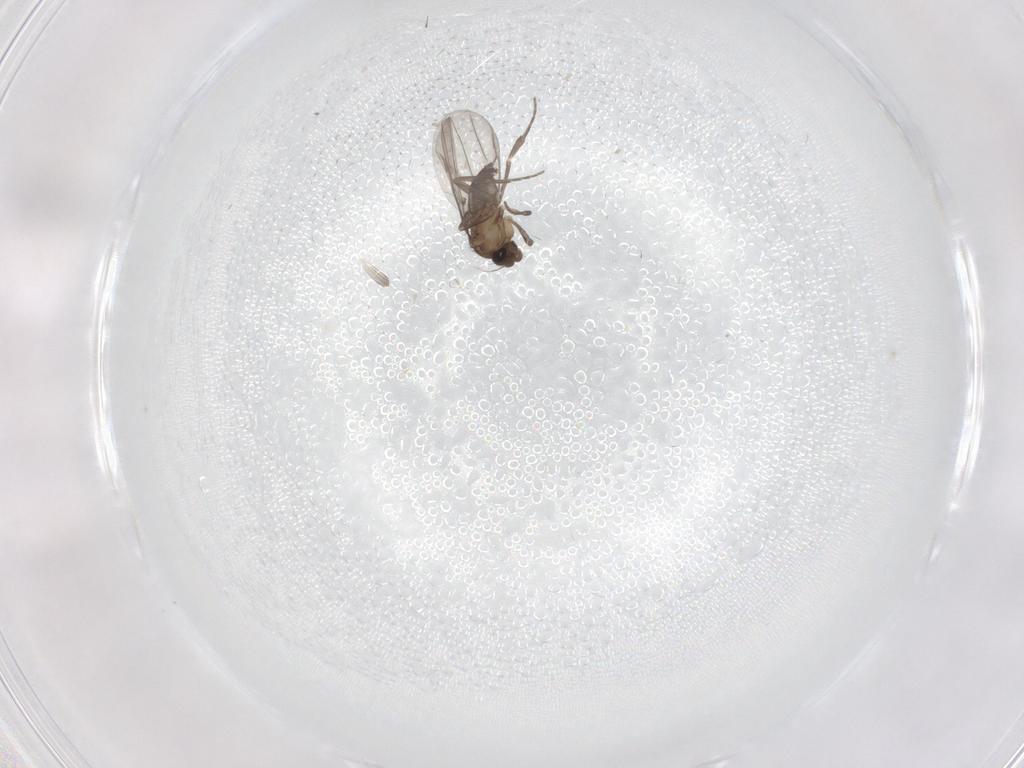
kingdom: Animalia
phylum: Arthropoda
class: Insecta
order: Diptera
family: Phoridae
